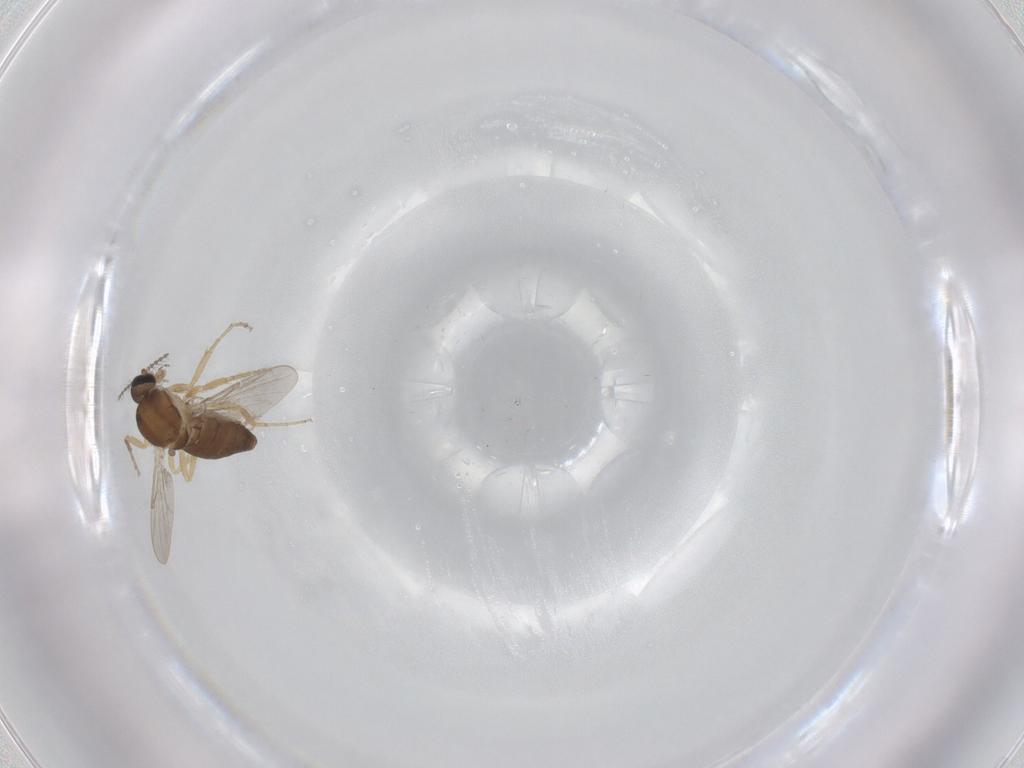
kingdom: Animalia
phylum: Arthropoda
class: Insecta
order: Diptera
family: Ceratopogonidae
